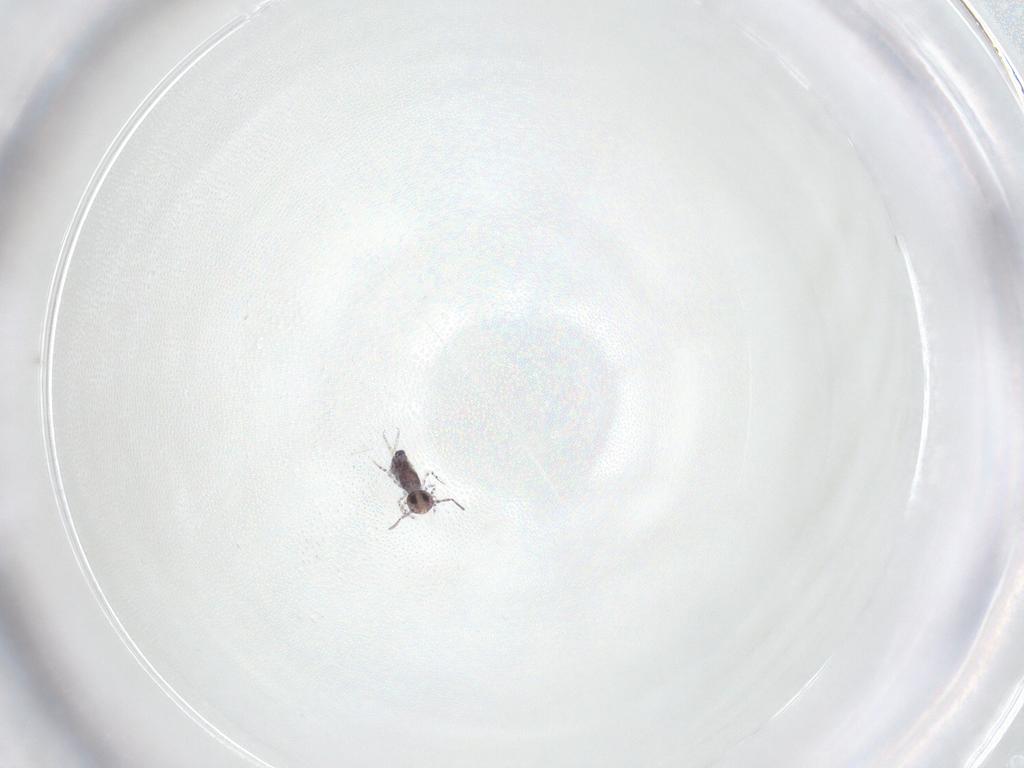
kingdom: Animalia
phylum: Arthropoda
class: Collembola
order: Symphypleona
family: Bourletiellidae
